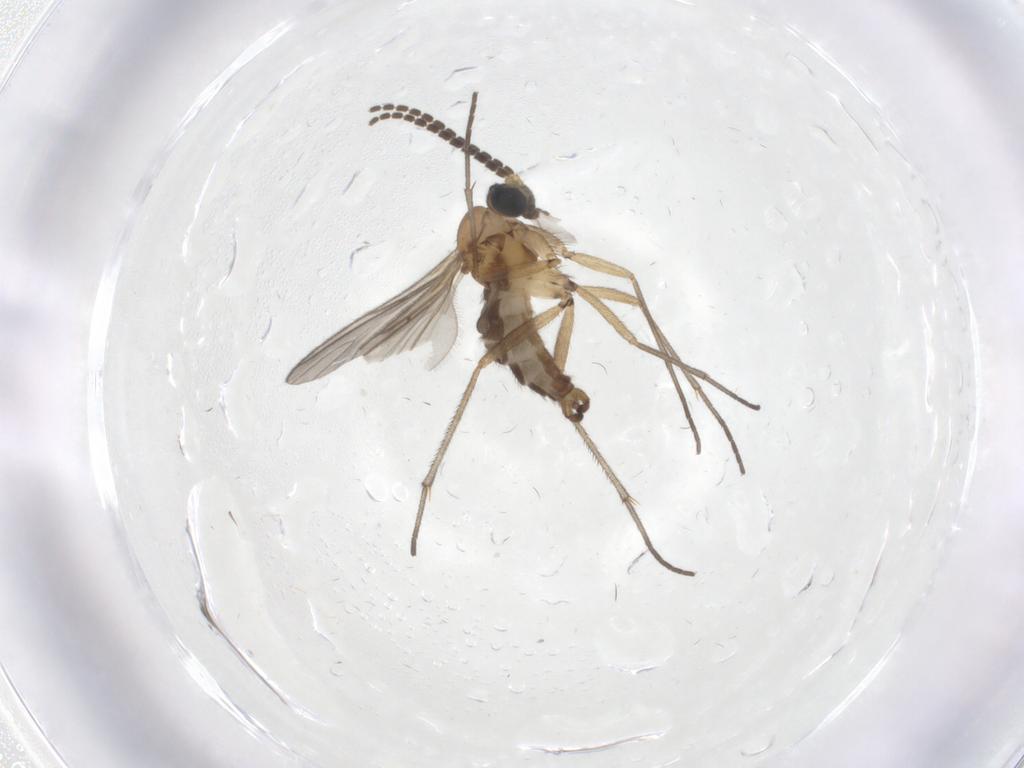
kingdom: Animalia
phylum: Arthropoda
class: Insecta
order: Diptera
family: Sciaridae
